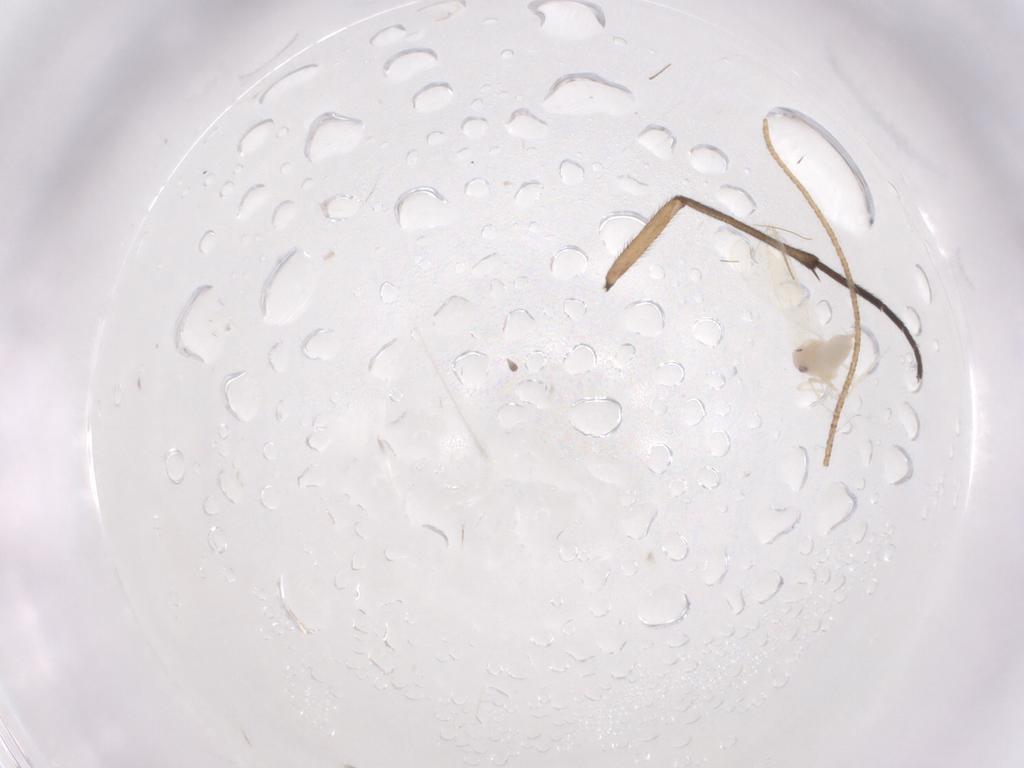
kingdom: Animalia
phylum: Arthropoda
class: Insecta
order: Hemiptera
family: Aleyrodidae
